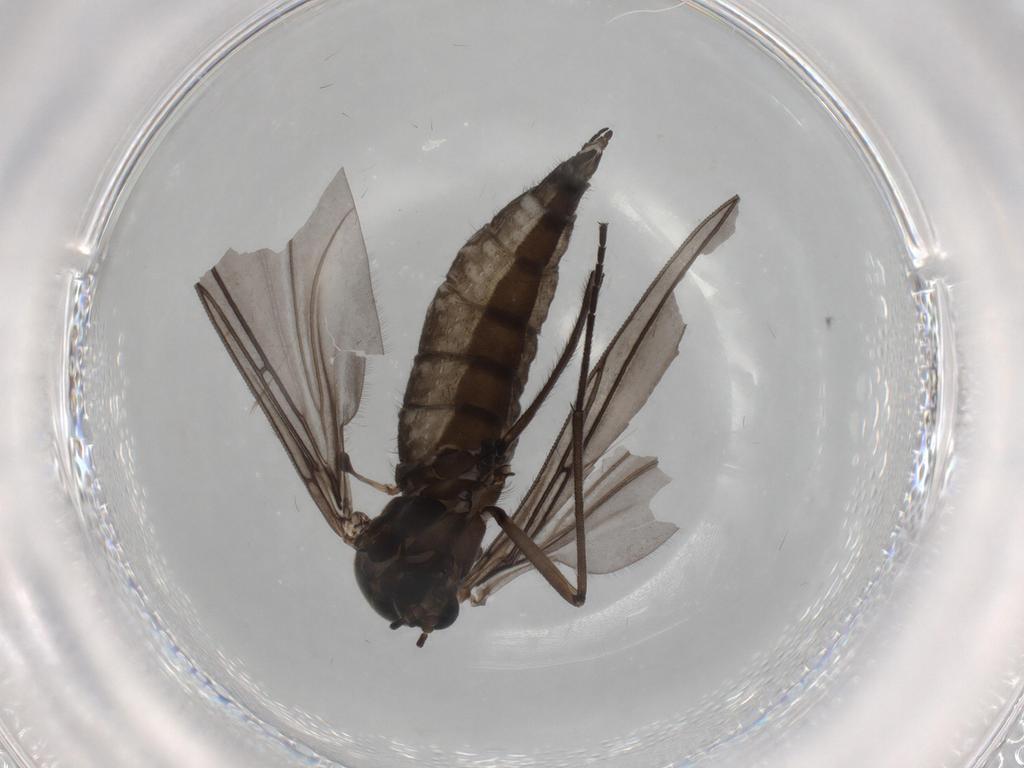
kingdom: Animalia
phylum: Arthropoda
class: Insecta
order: Diptera
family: Sciaridae
